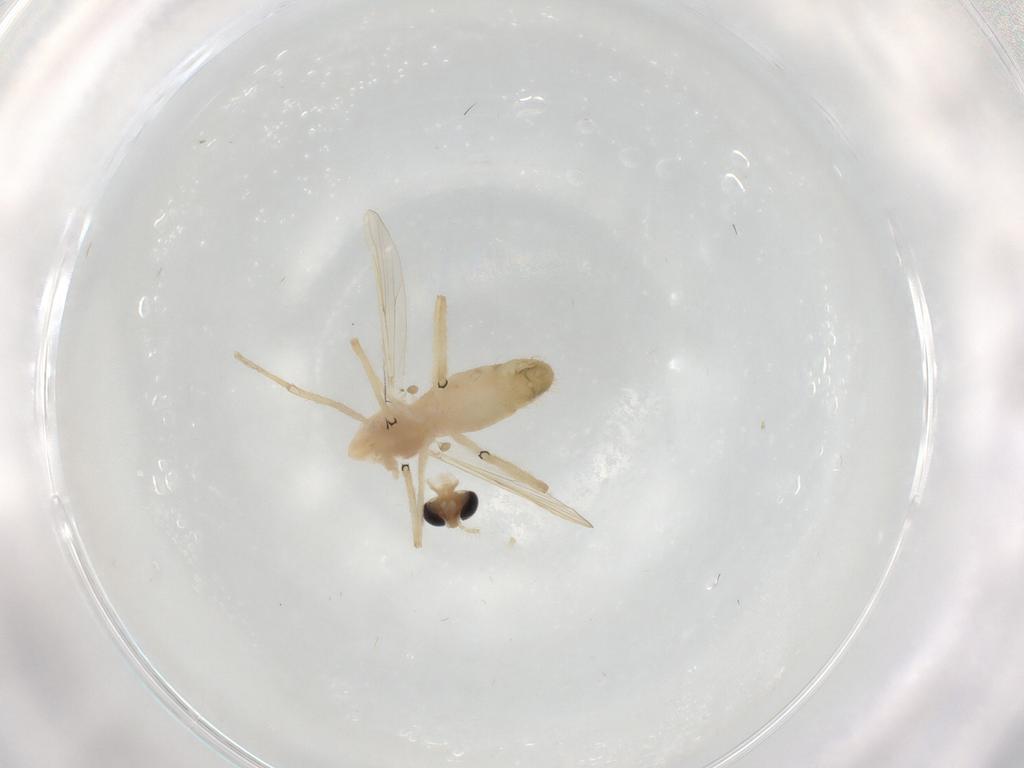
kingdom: Animalia
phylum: Arthropoda
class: Insecta
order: Diptera
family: Chironomidae
